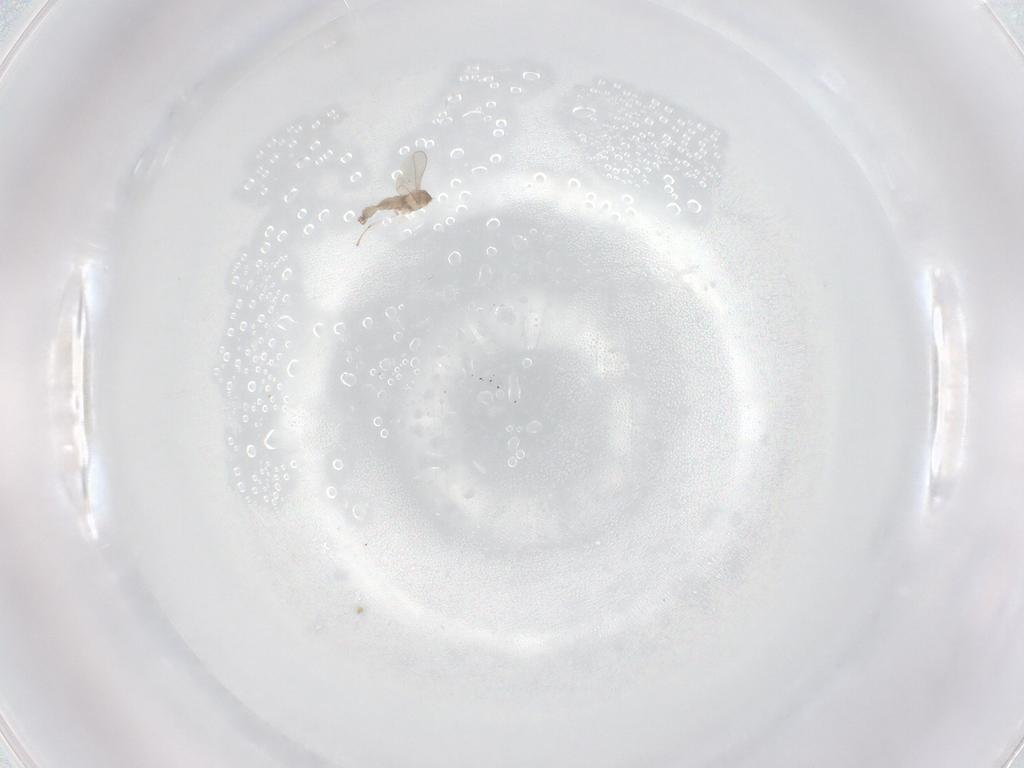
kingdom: Animalia
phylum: Arthropoda
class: Insecta
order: Diptera
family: Cecidomyiidae
